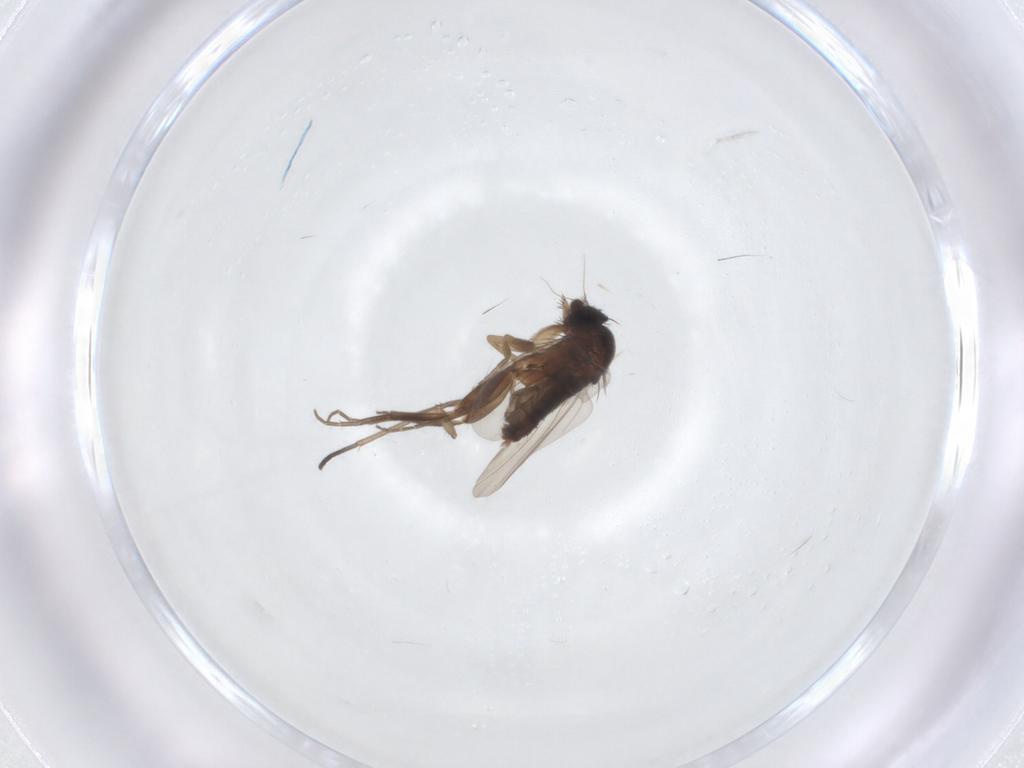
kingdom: Animalia
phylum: Arthropoda
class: Insecta
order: Diptera
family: Phoridae
